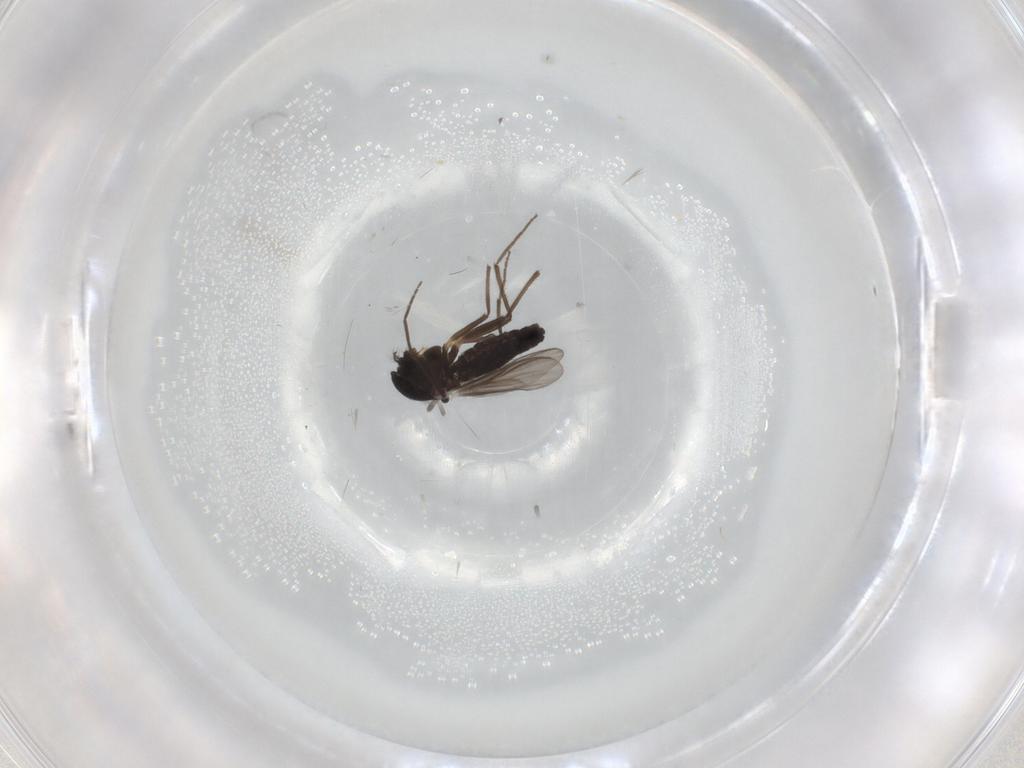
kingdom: Animalia
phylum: Arthropoda
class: Insecta
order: Diptera
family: Chironomidae
